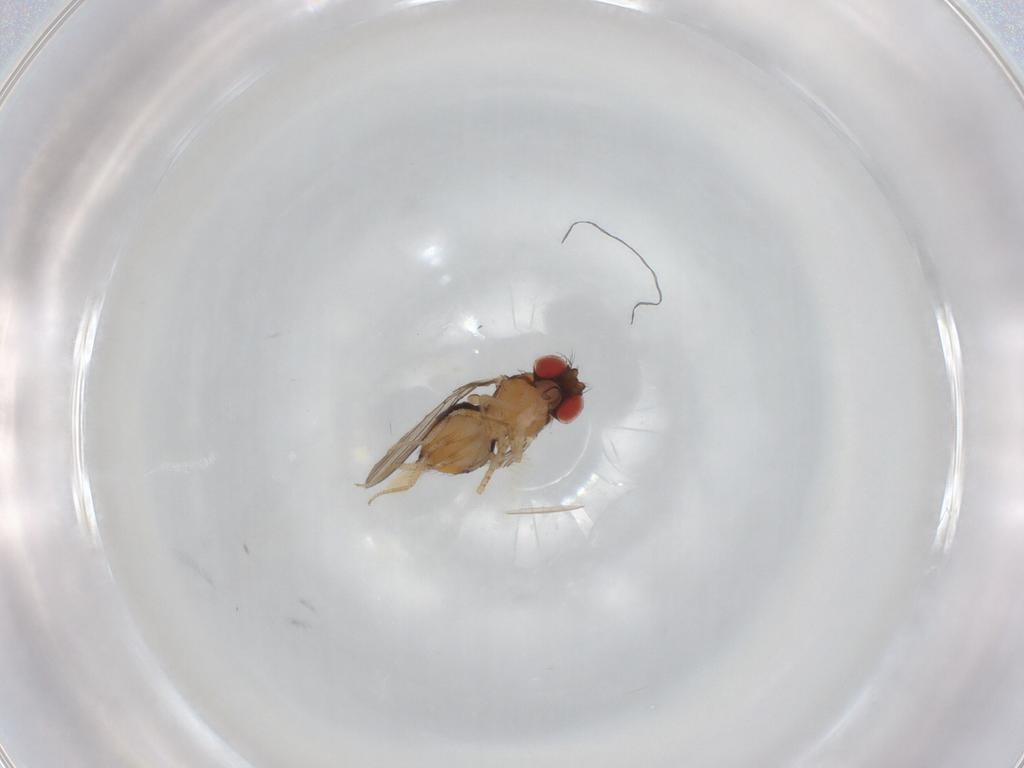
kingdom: Animalia
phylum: Arthropoda
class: Insecta
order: Diptera
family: Drosophilidae
